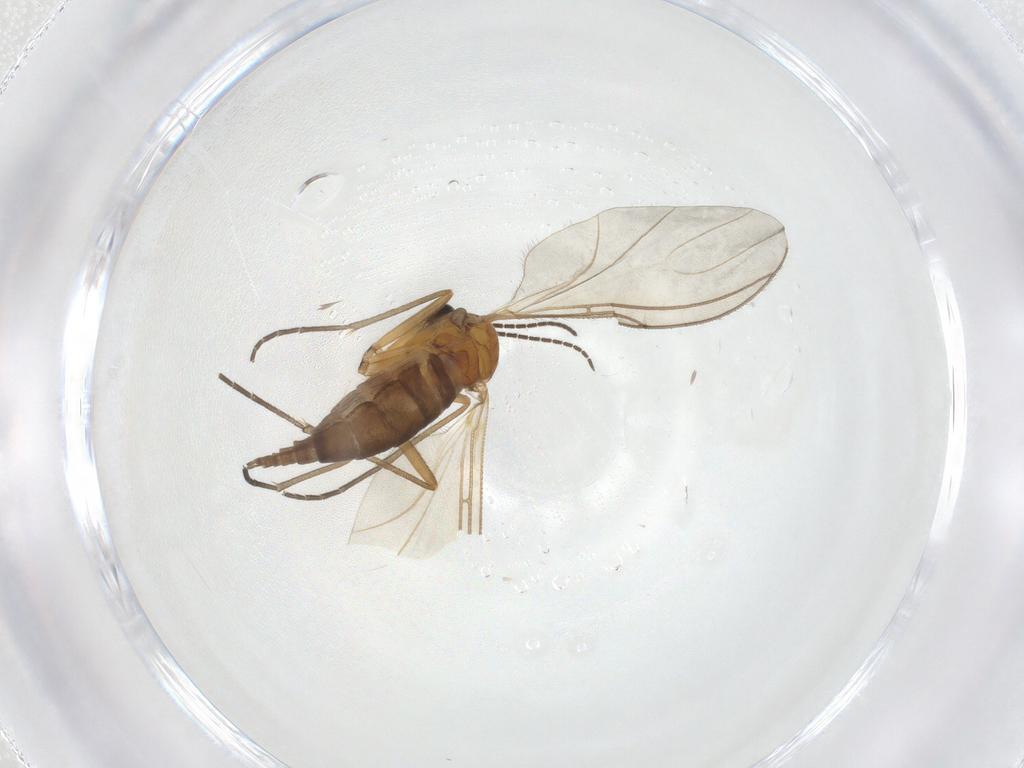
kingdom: Animalia
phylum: Arthropoda
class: Insecta
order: Diptera
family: Sciaridae
